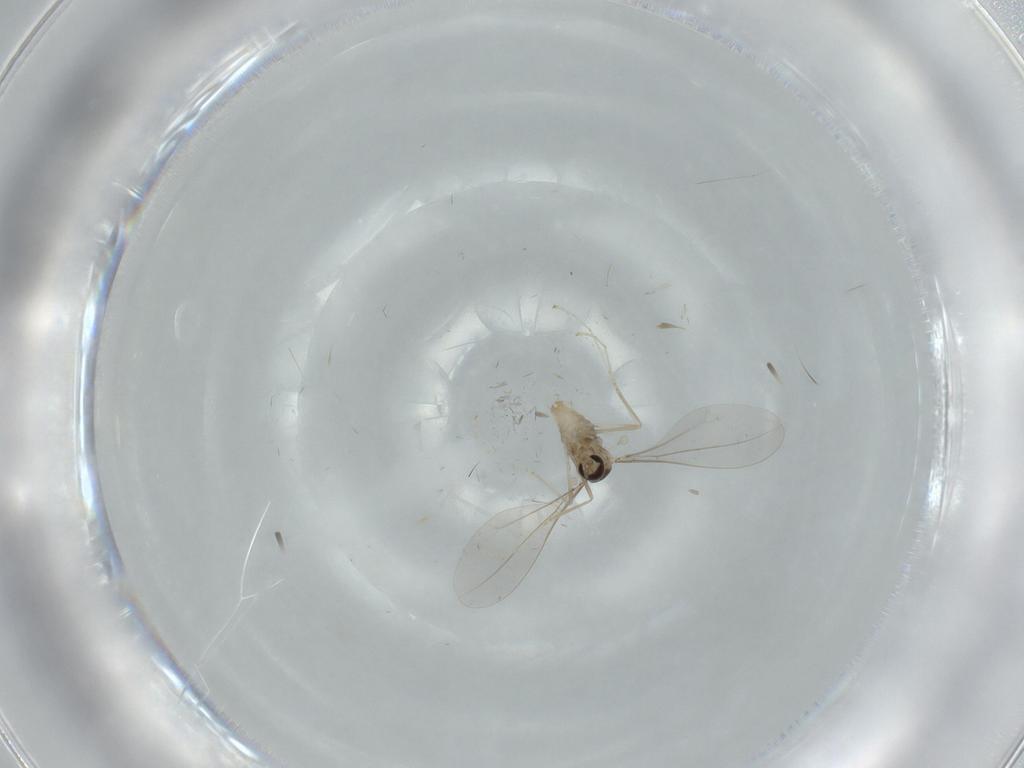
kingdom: Animalia
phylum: Arthropoda
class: Insecta
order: Diptera
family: Cecidomyiidae
